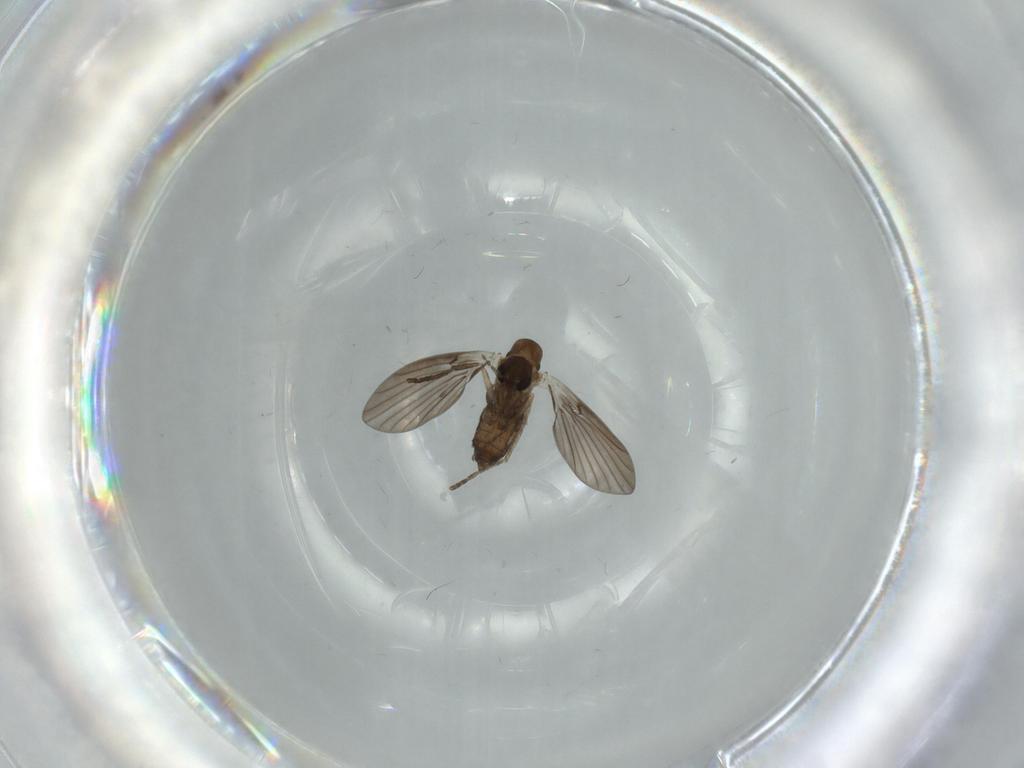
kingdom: Animalia
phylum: Arthropoda
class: Insecta
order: Diptera
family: Psychodidae
